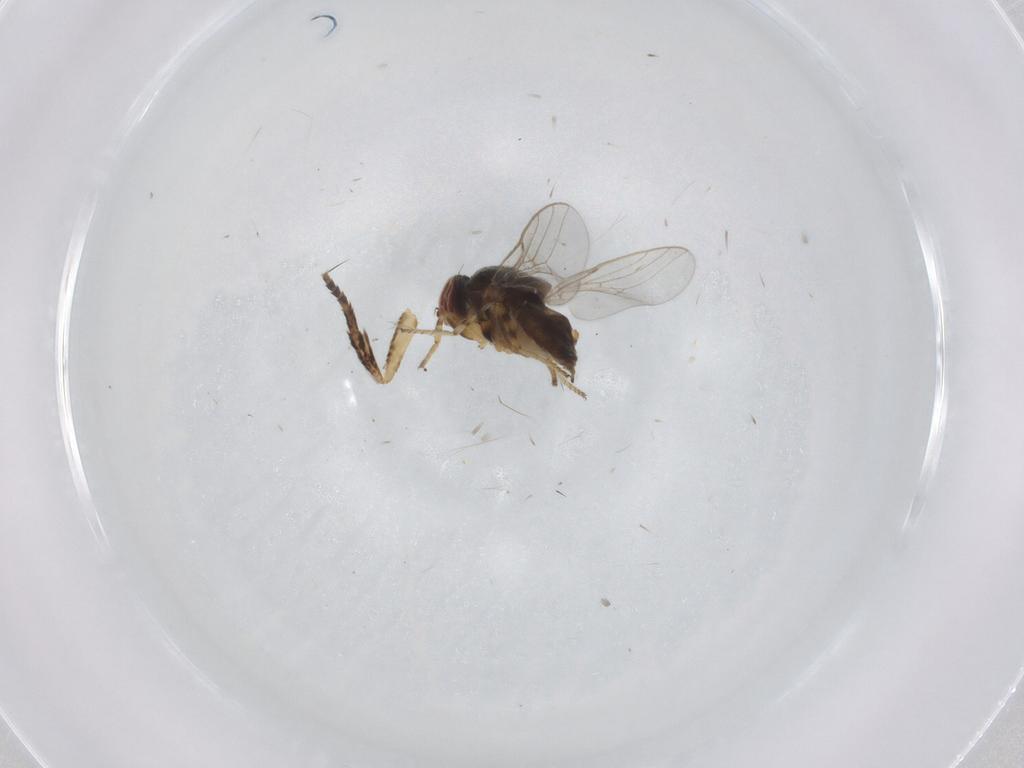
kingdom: Animalia
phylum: Arthropoda
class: Insecta
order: Diptera
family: Chloropidae
